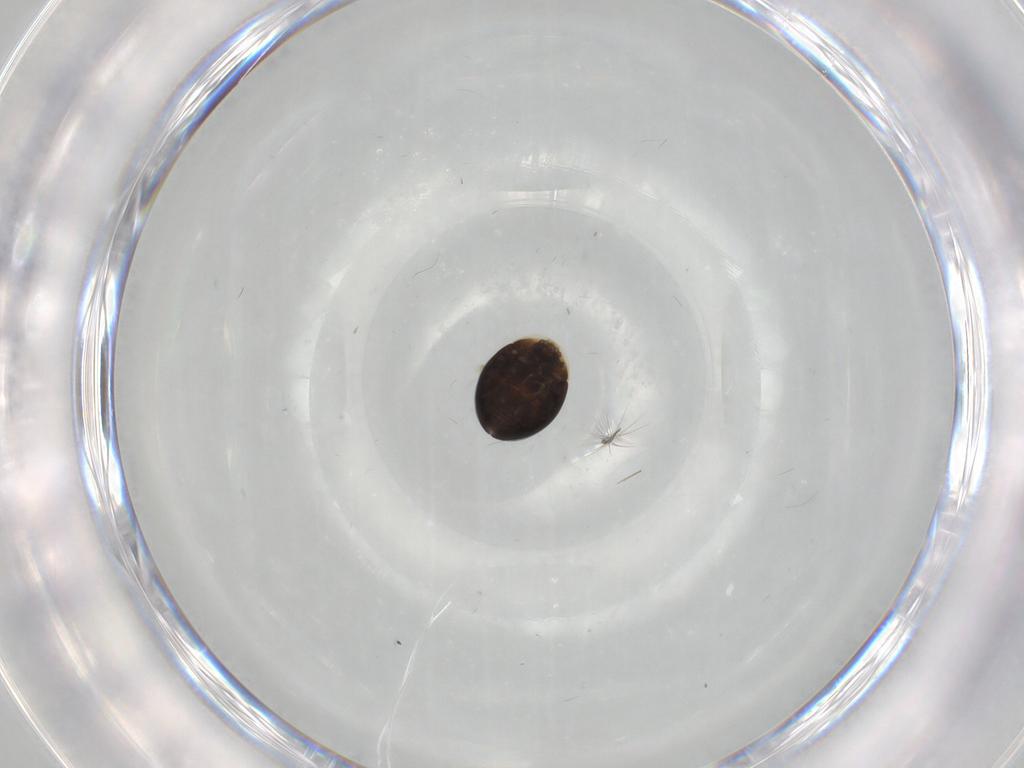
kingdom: Animalia
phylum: Arthropoda
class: Insecta
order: Coleoptera
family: Corylophidae
